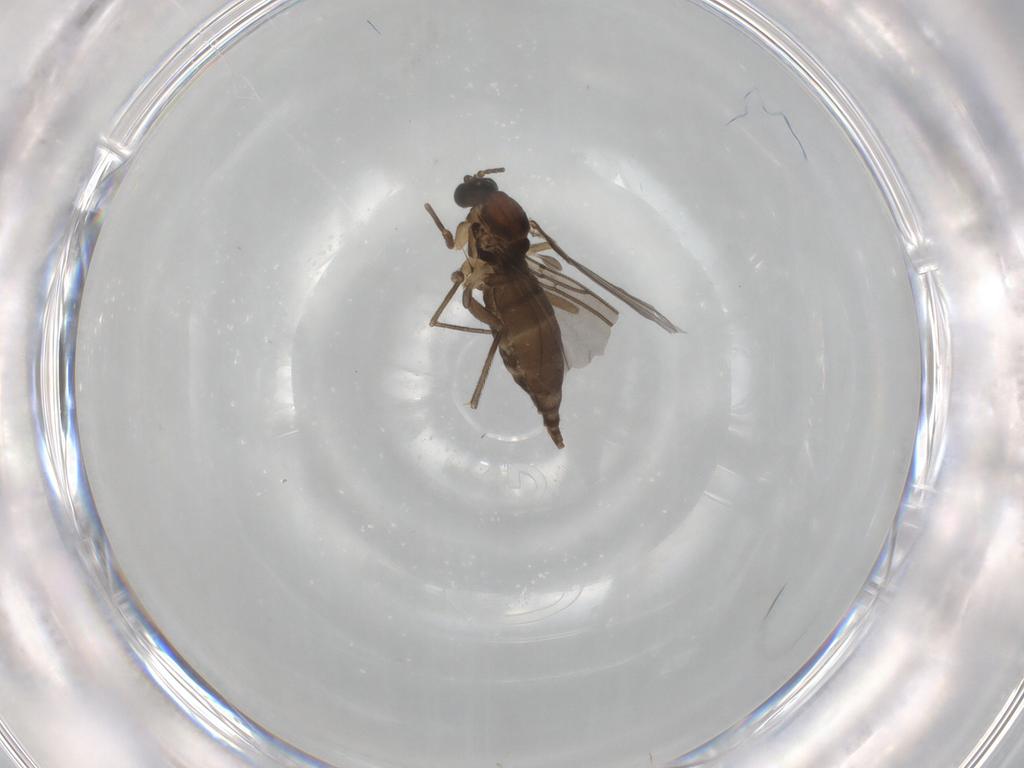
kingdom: Animalia
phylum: Arthropoda
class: Insecta
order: Diptera
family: Sciaridae
